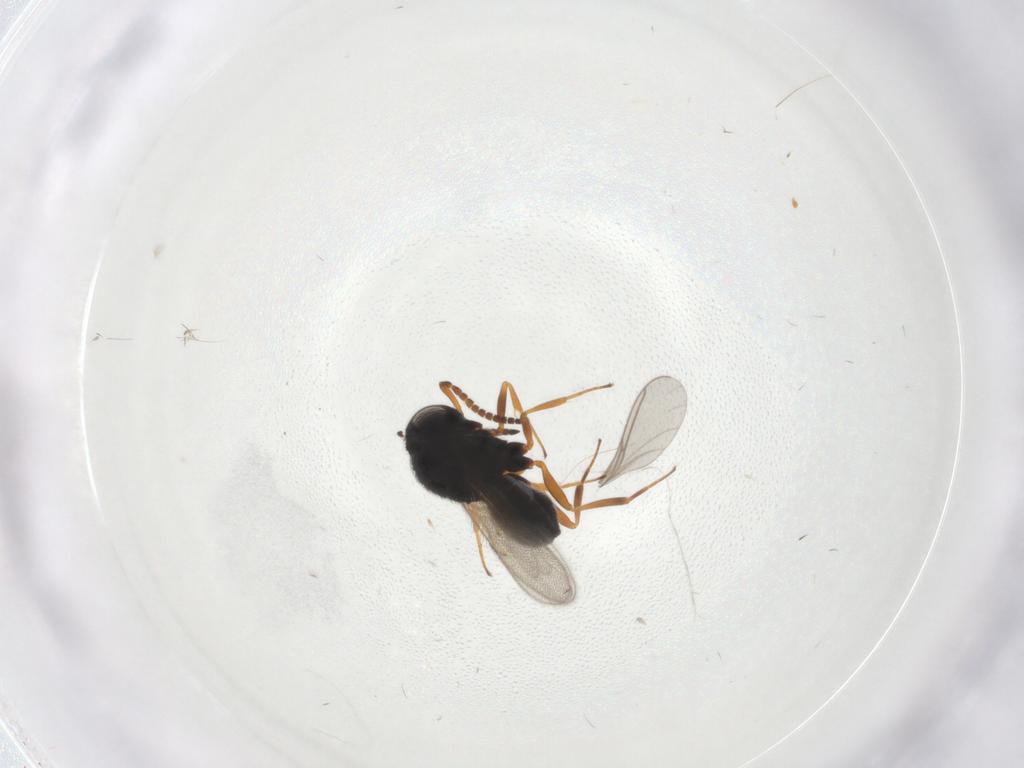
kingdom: Animalia
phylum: Arthropoda
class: Insecta
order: Hymenoptera
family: Scelionidae
